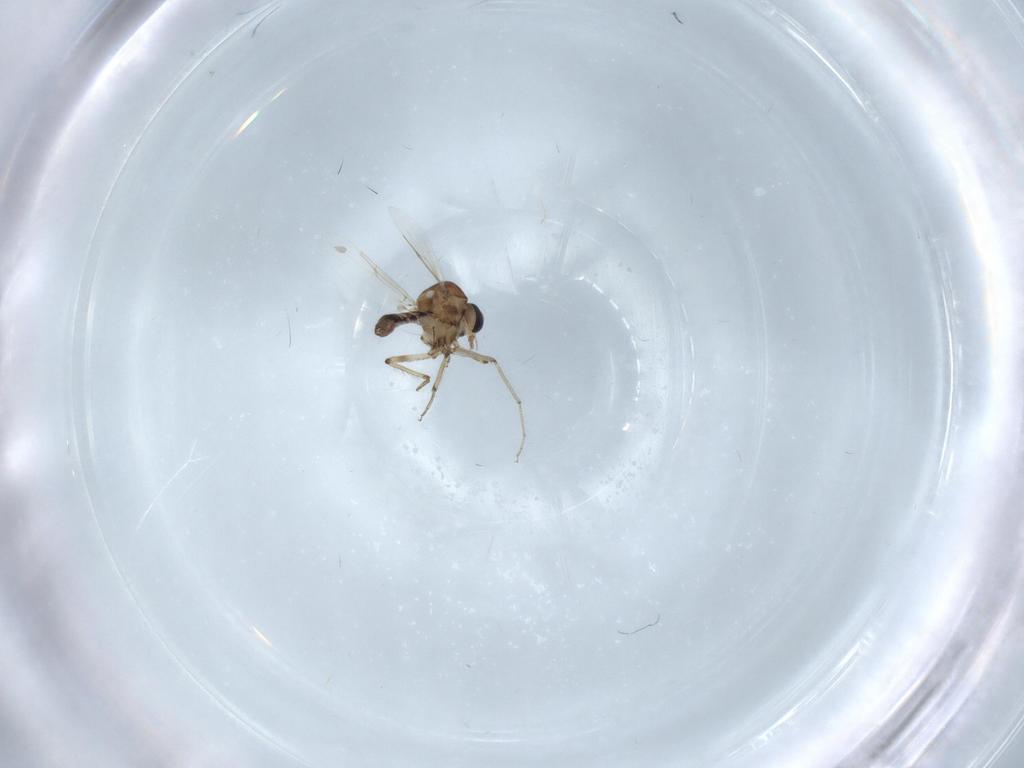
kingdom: Animalia
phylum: Arthropoda
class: Insecta
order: Diptera
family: Ceratopogonidae
